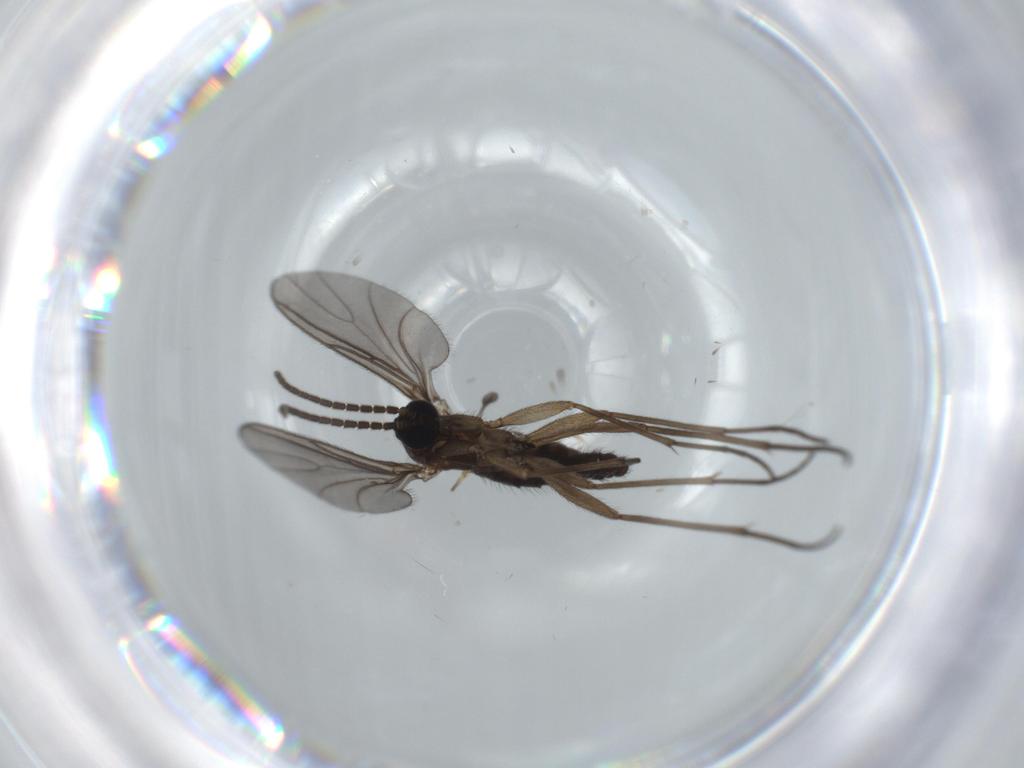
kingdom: Animalia
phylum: Arthropoda
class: Insecta
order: Diptera
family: Sciaridae
